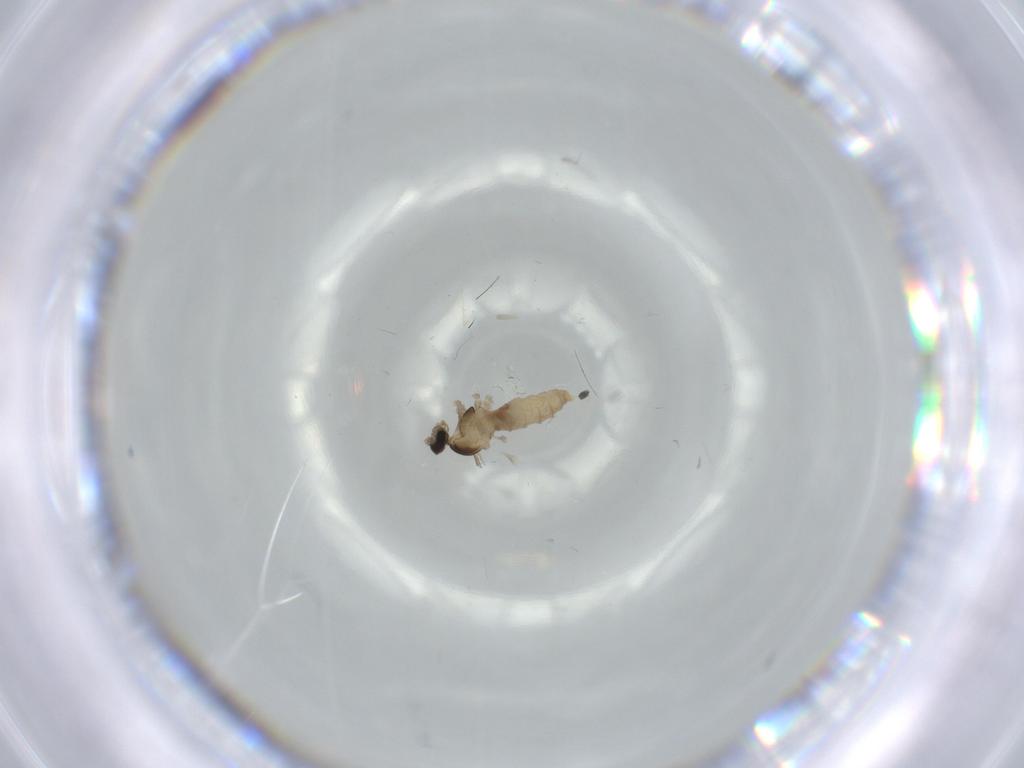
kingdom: Animalia
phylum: Arthropoda
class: Insecta
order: Diptera
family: Cecidomyiidae
